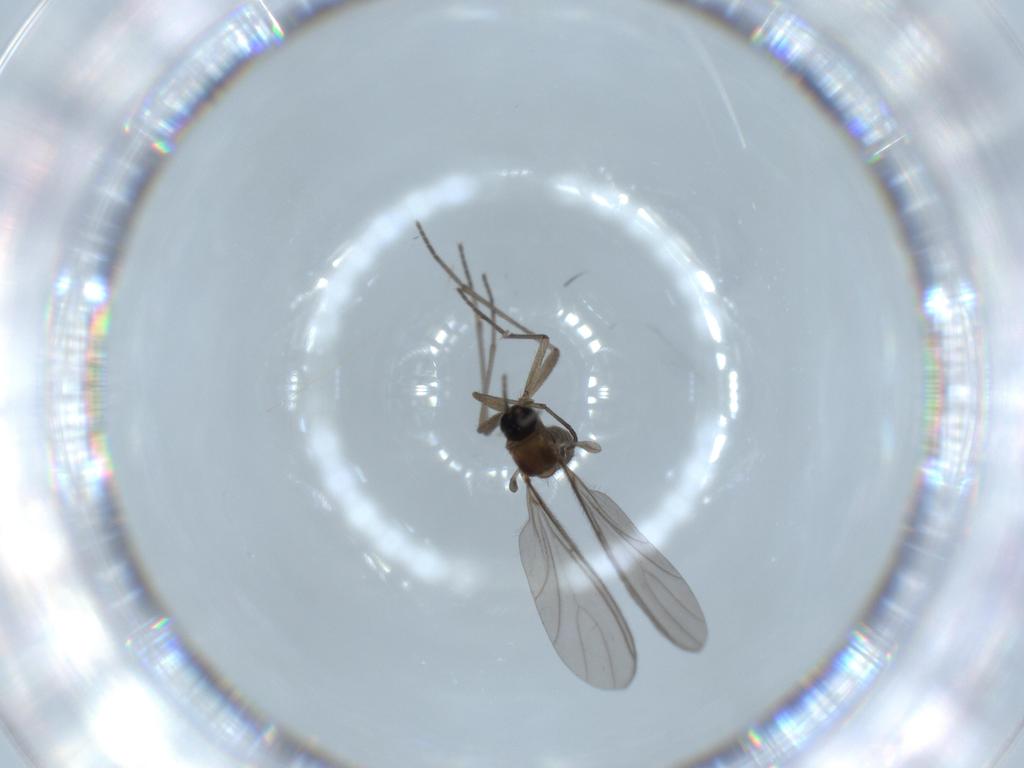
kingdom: Animalia
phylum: Arthropoda
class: Insecta
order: Diptera
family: Sciaridae
